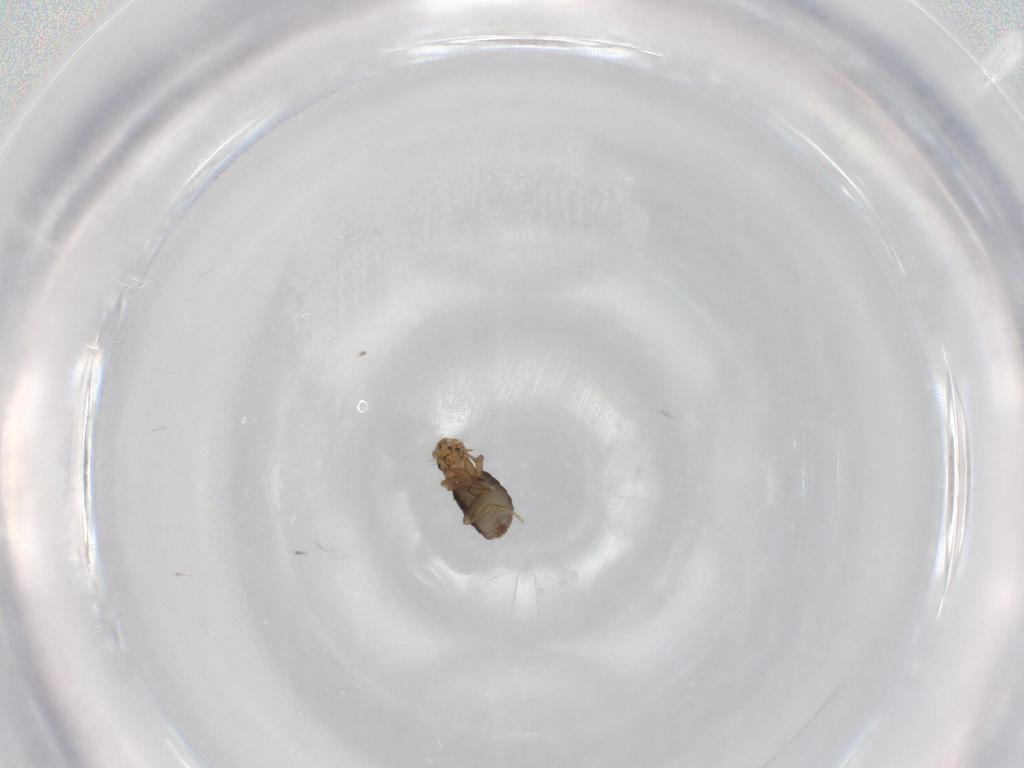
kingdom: Animalia
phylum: Arthropoda
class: Insecta
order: Diptera
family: Phoridae
